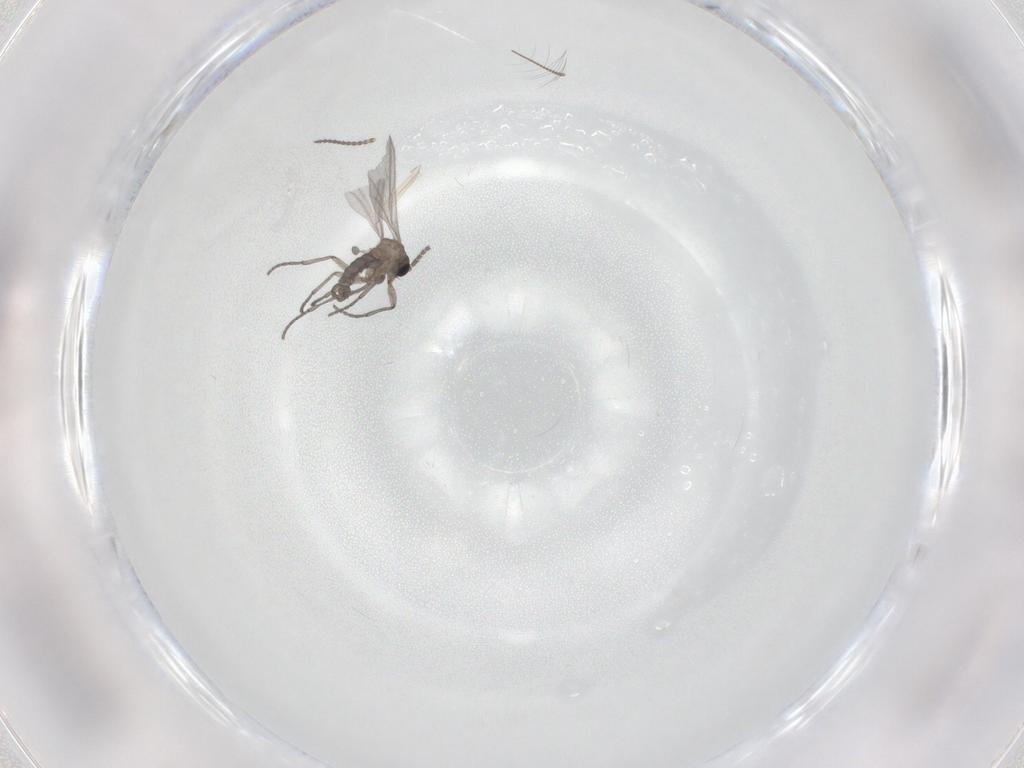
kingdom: Animalia
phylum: Arthropoda
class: Insecta
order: Diptera
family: Sciaridae
